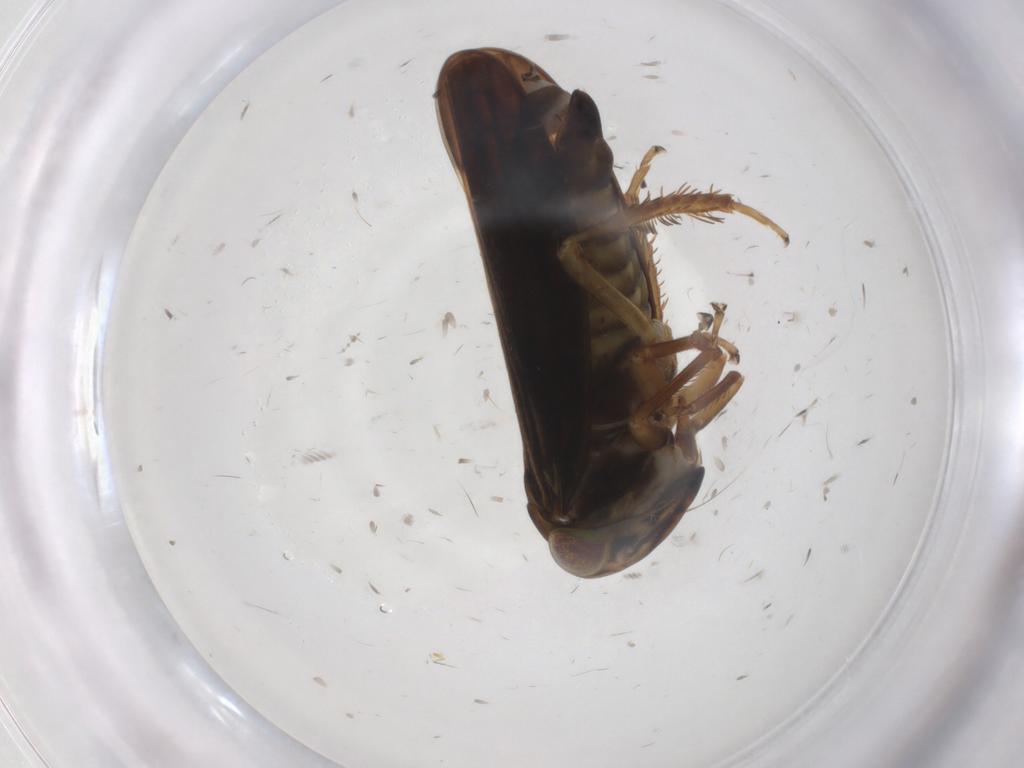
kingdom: Animalia
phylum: Arthropoda
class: Insecta
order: Hemiptera
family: Cicadellidae
